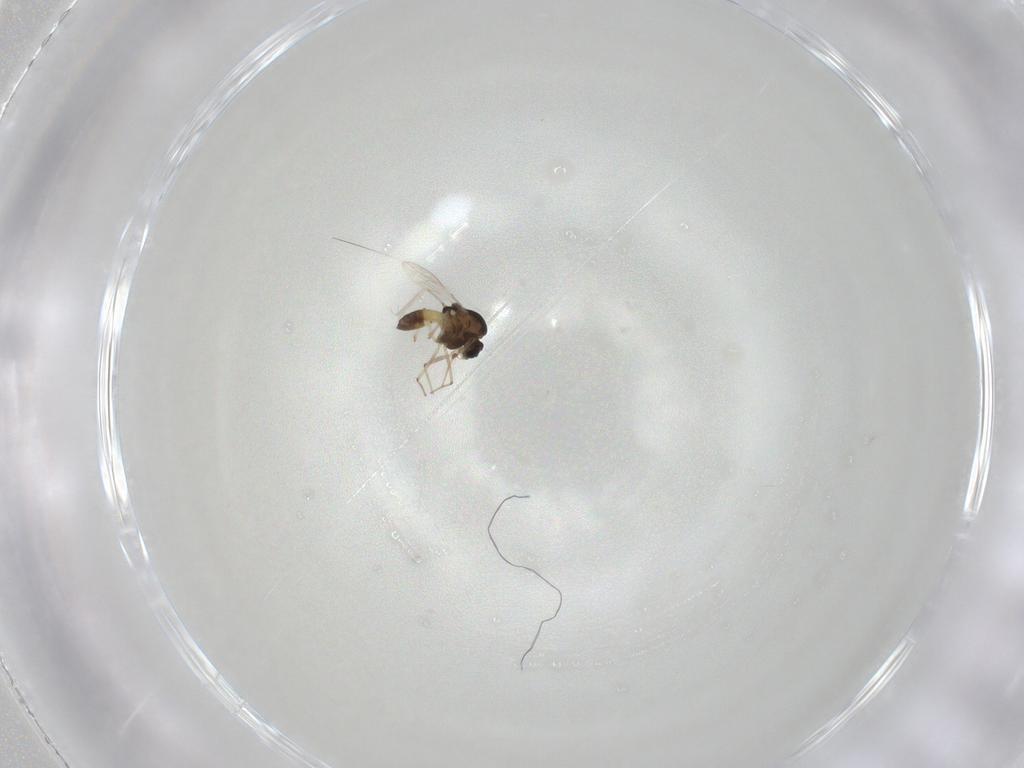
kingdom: Animalia
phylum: Arthropoda
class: Insecta
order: Diptera
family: Chironomidae
